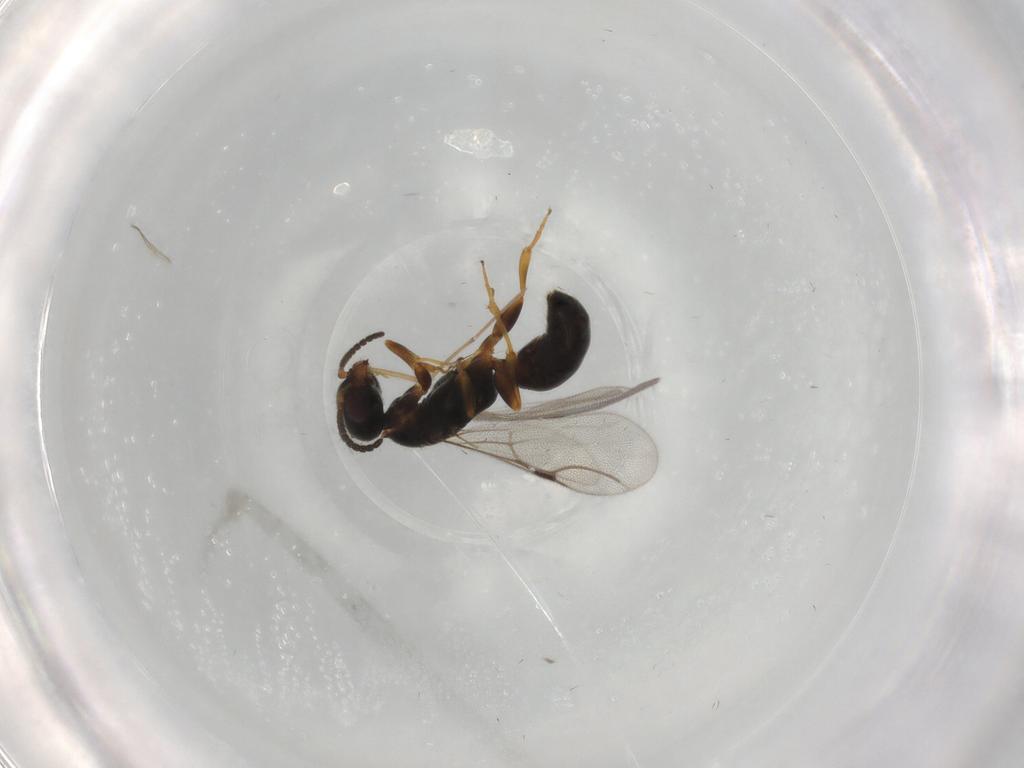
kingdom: Animalia
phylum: Arthropoda
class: Insecta
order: Hymenoptera
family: Bethylidae
